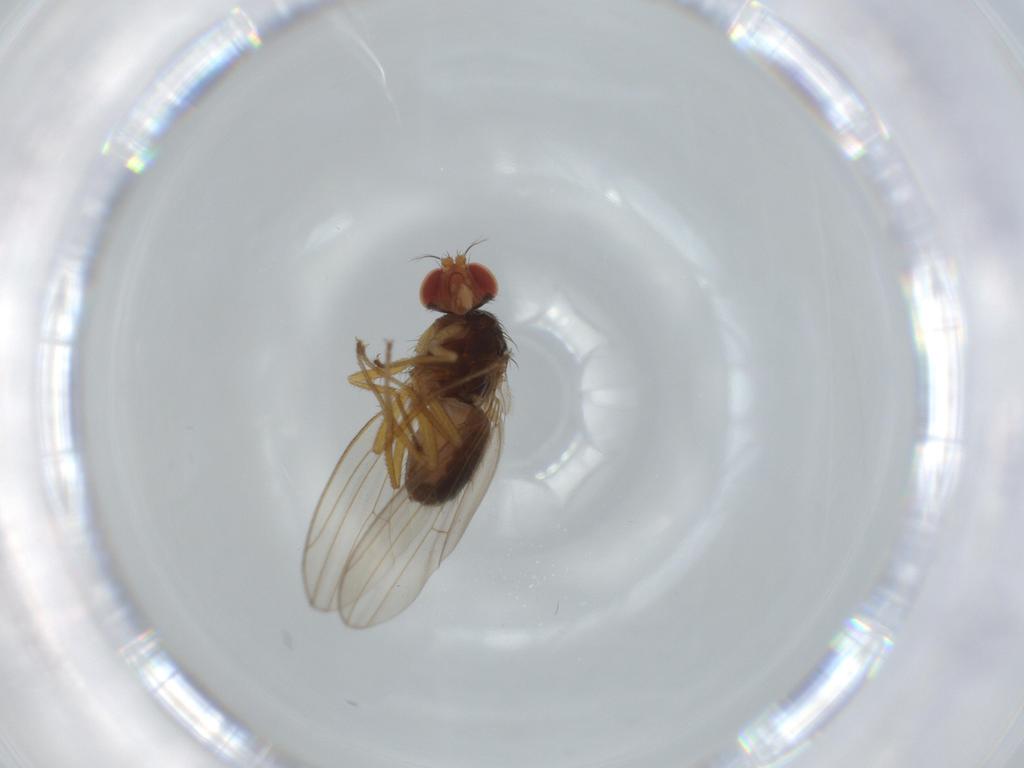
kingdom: Animalia
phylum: Arthropoda
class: Insecta
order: Diptera
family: Drosophilidae
